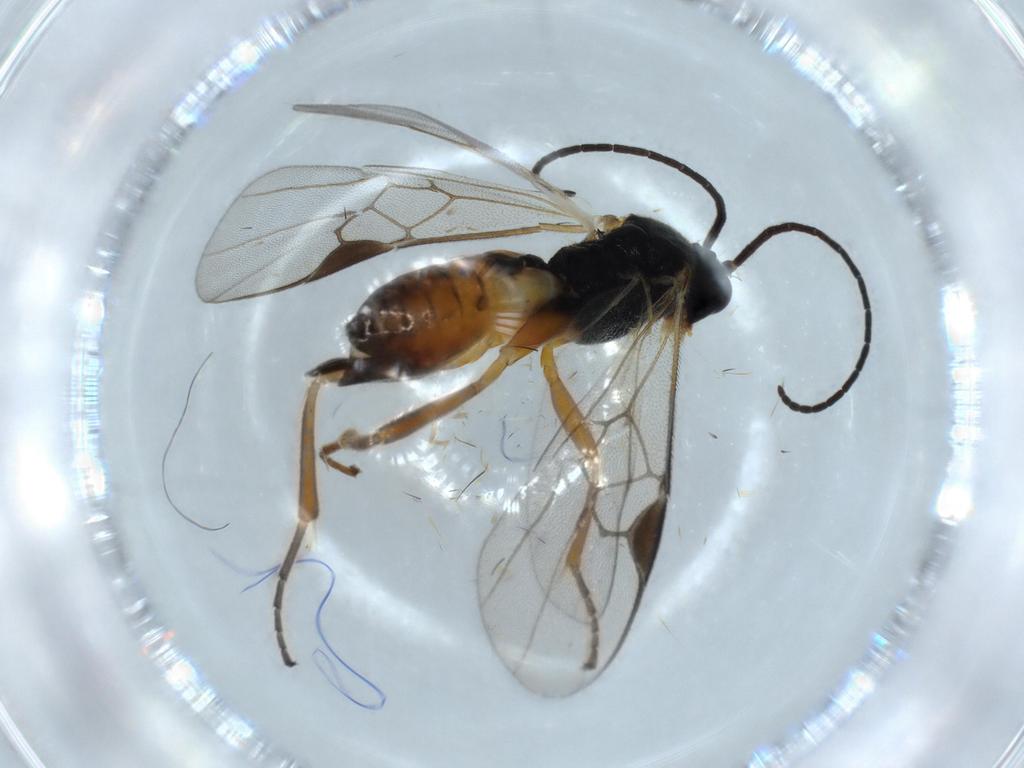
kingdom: Animalia
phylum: Arthropoda
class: Insecta
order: Hymenoptera
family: Braconidae
